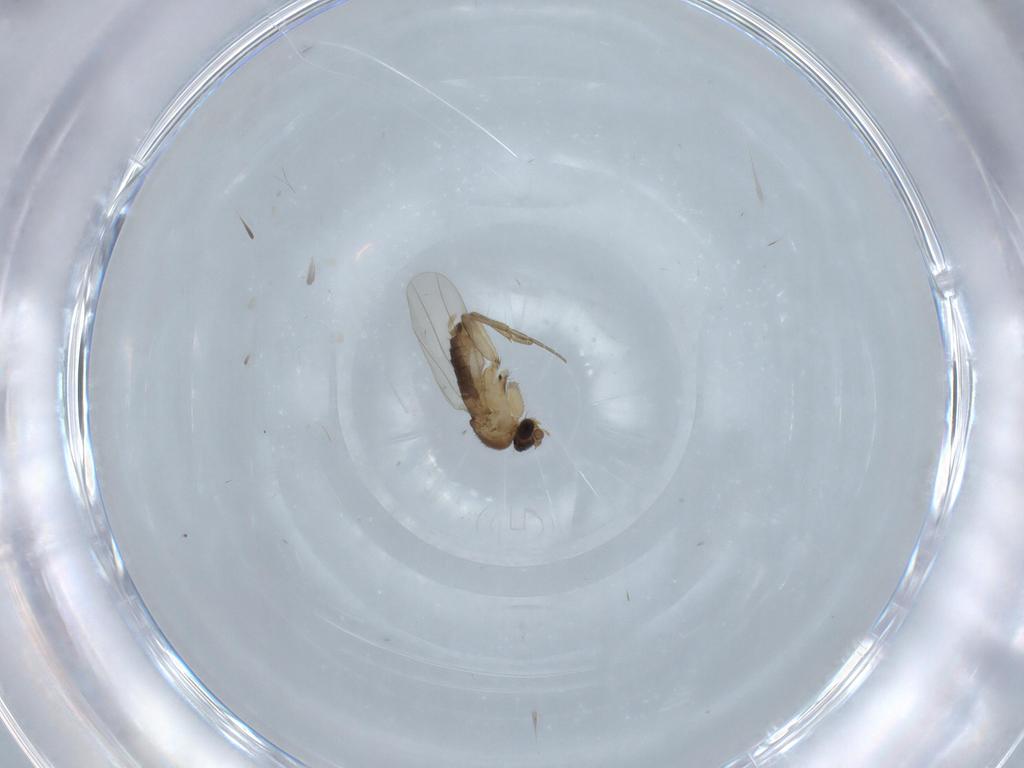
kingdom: Animalia
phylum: Arthropoda
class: Insecta
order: Diptera
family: Phoridae
